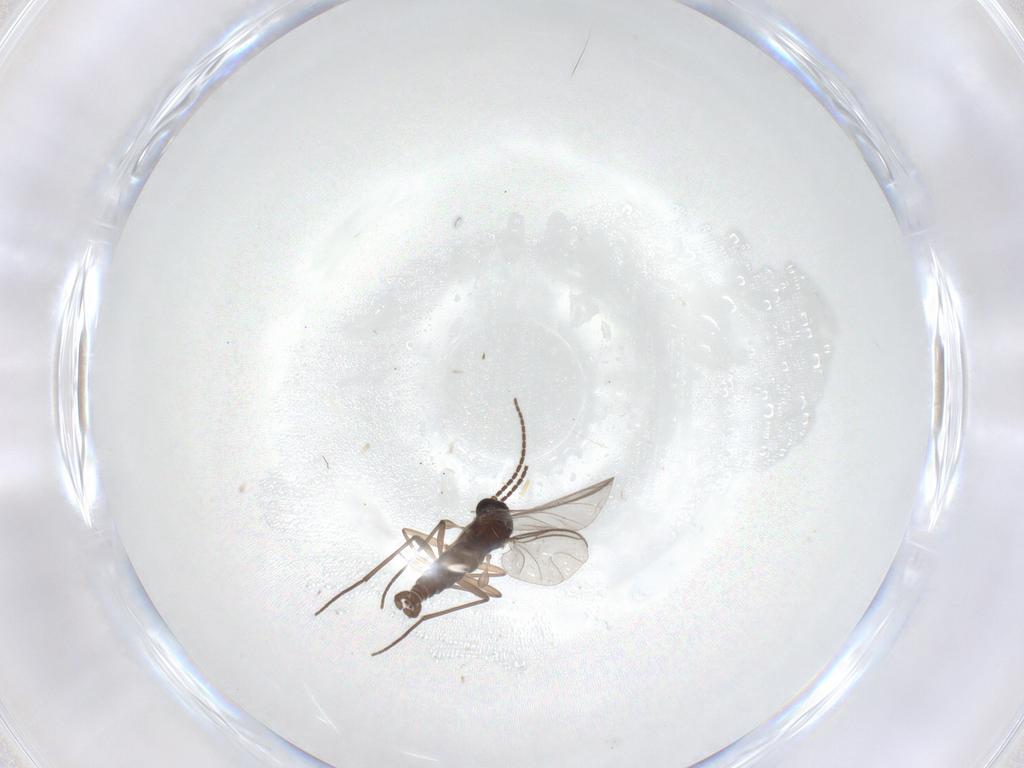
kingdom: Animalia
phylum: Arthropoda
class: Insecta
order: Diptera
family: Sciaridae
